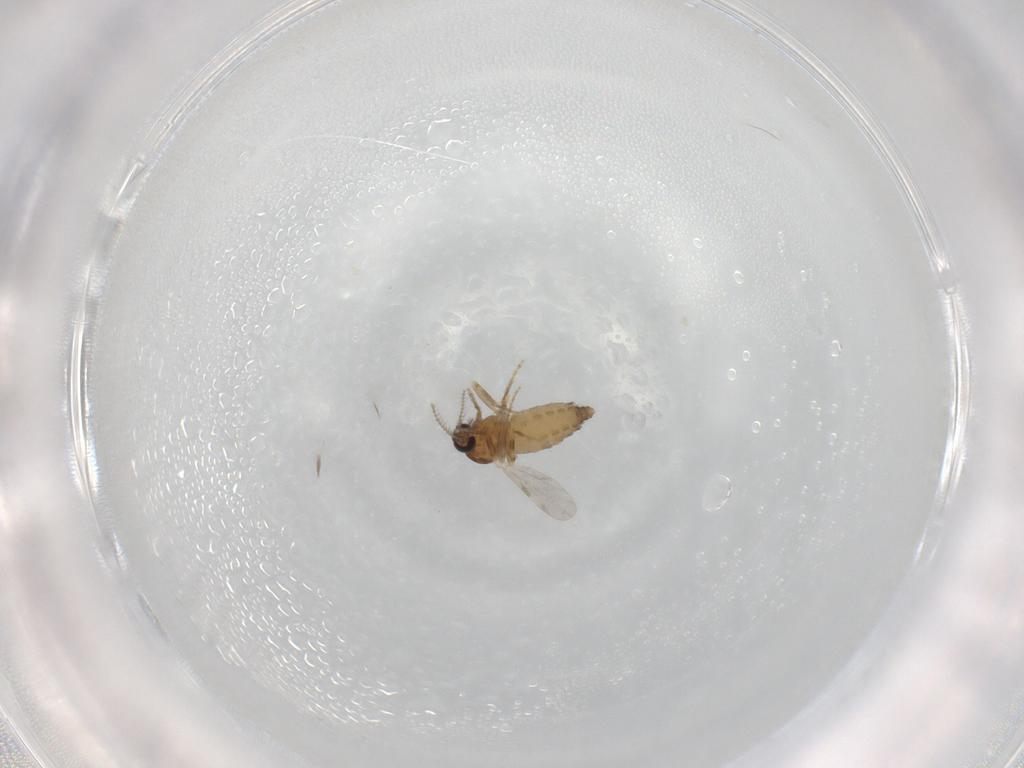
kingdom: Animalia
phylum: Arthropoda
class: Insecta
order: Diptera
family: Ceratopogonidae
